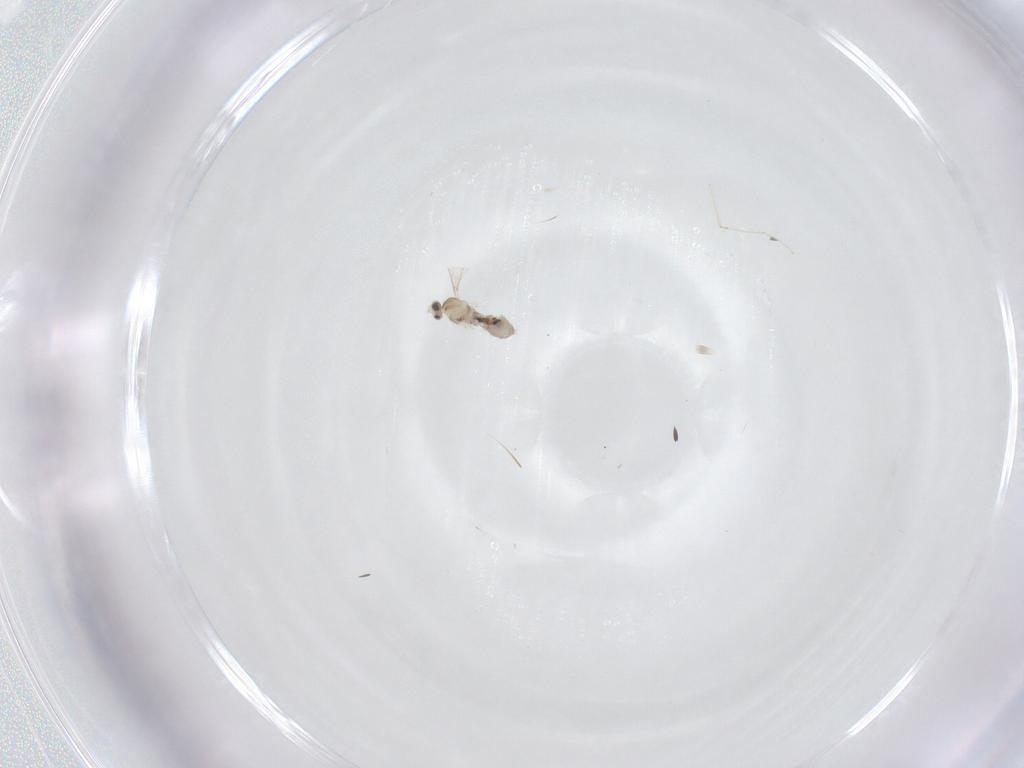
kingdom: Animalia
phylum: Arthropoda
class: Insecta
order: Diptera
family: Cecidomyiidae
